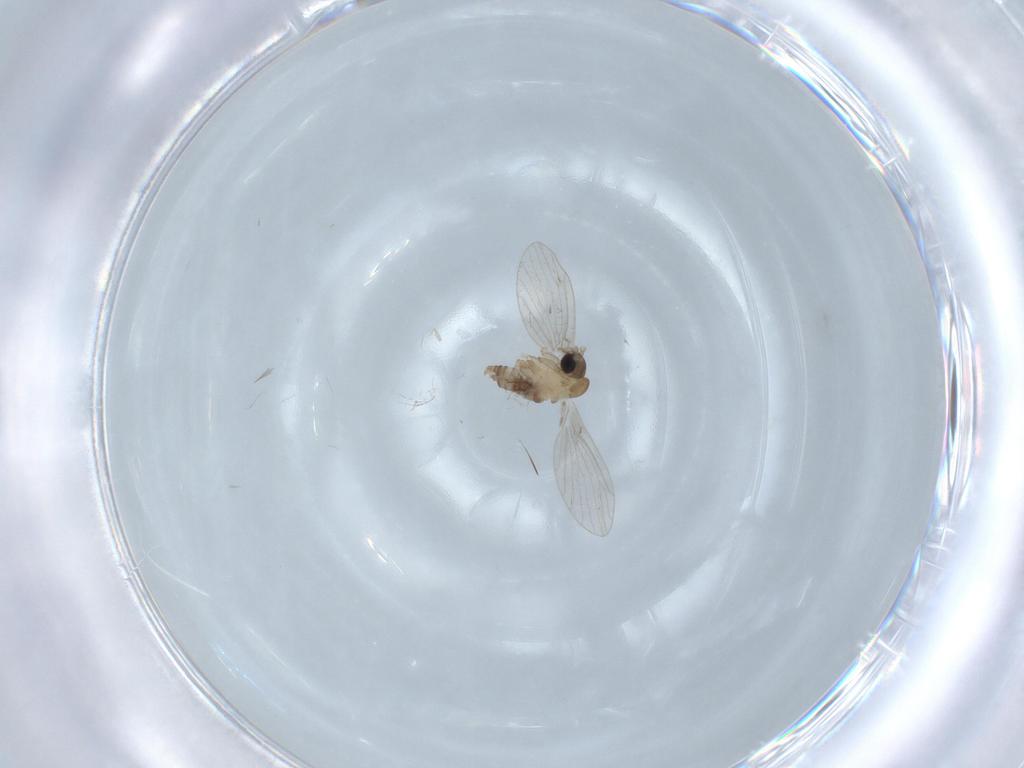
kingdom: Animalia
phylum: Arthropoda
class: Insecta
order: Diptera
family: Psychodidae
